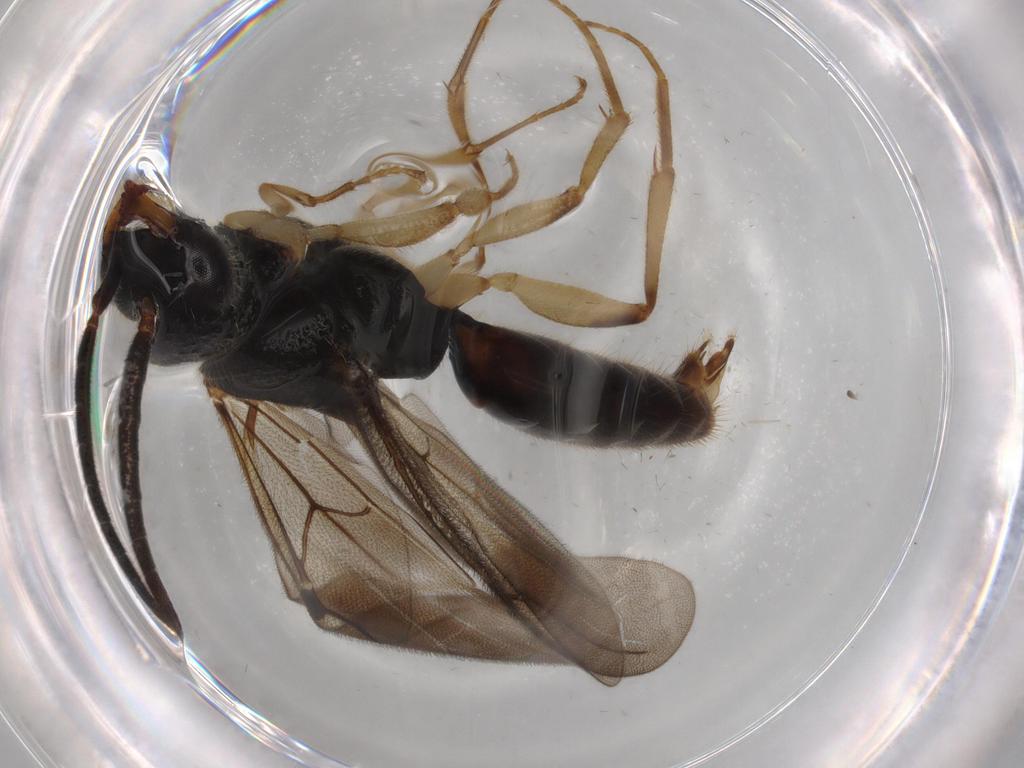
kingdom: Animalia
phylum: Arthropoda
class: Insecta
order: Hymenoptera
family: Bethylidae
